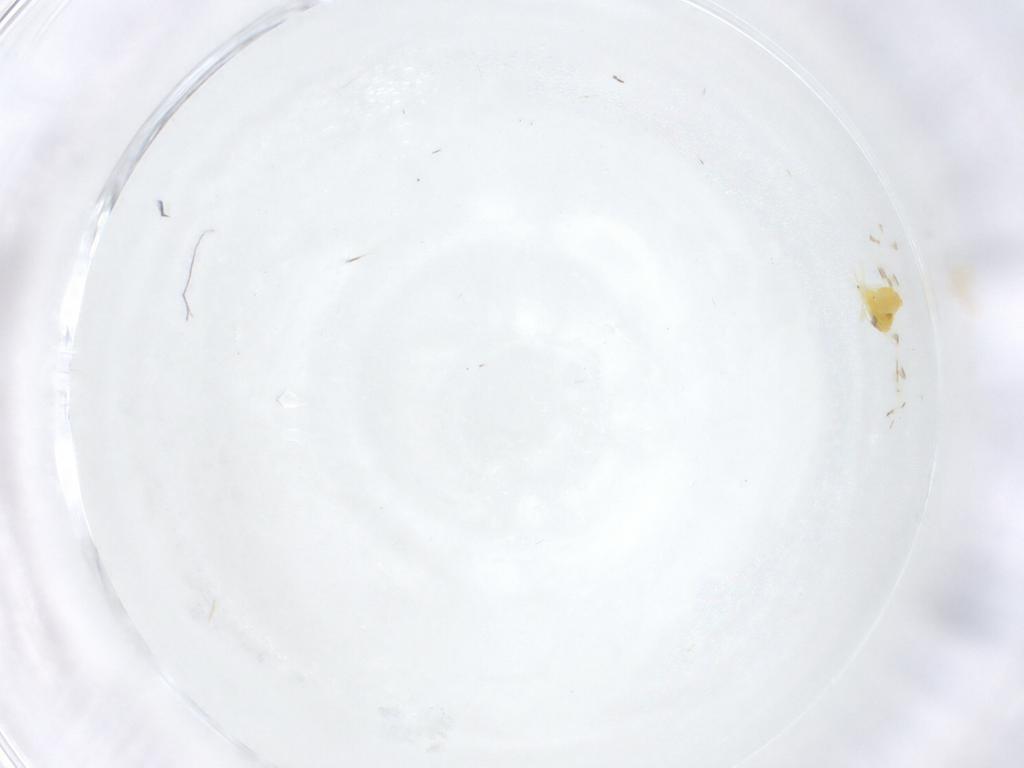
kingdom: Animalia
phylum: Arthropoda
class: Insecta
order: Hemiptera
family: Aleyrodidae
